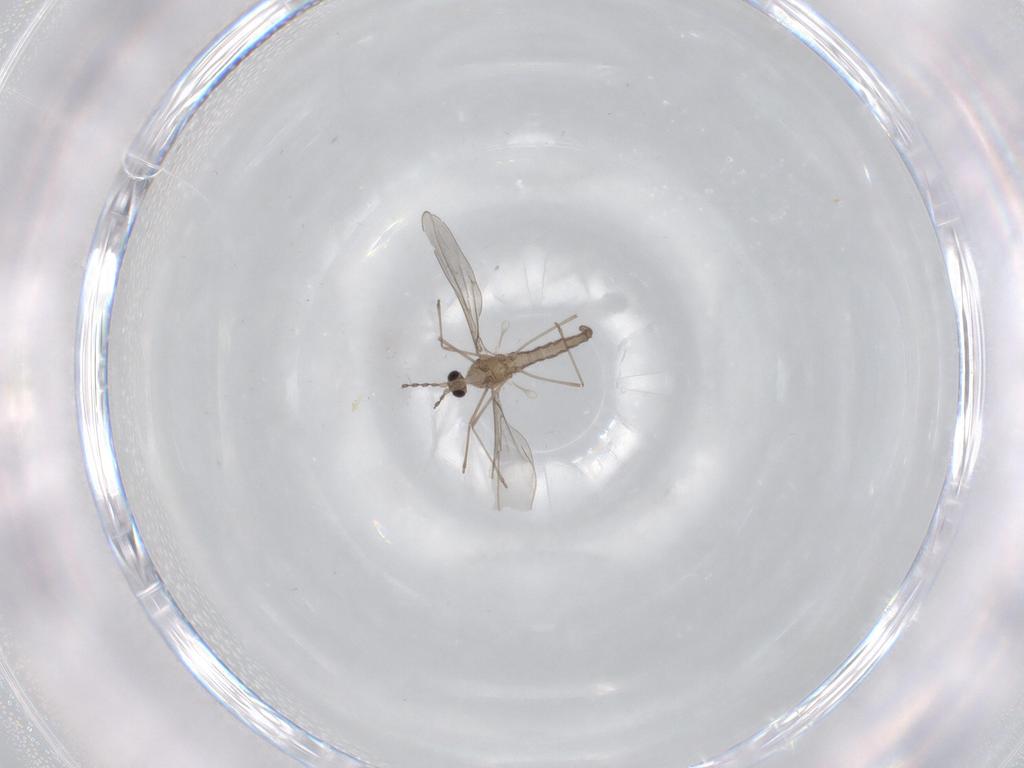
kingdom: Animalia
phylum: Arthropoda
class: Insecta
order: Diptera
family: Cecidomyiidae
